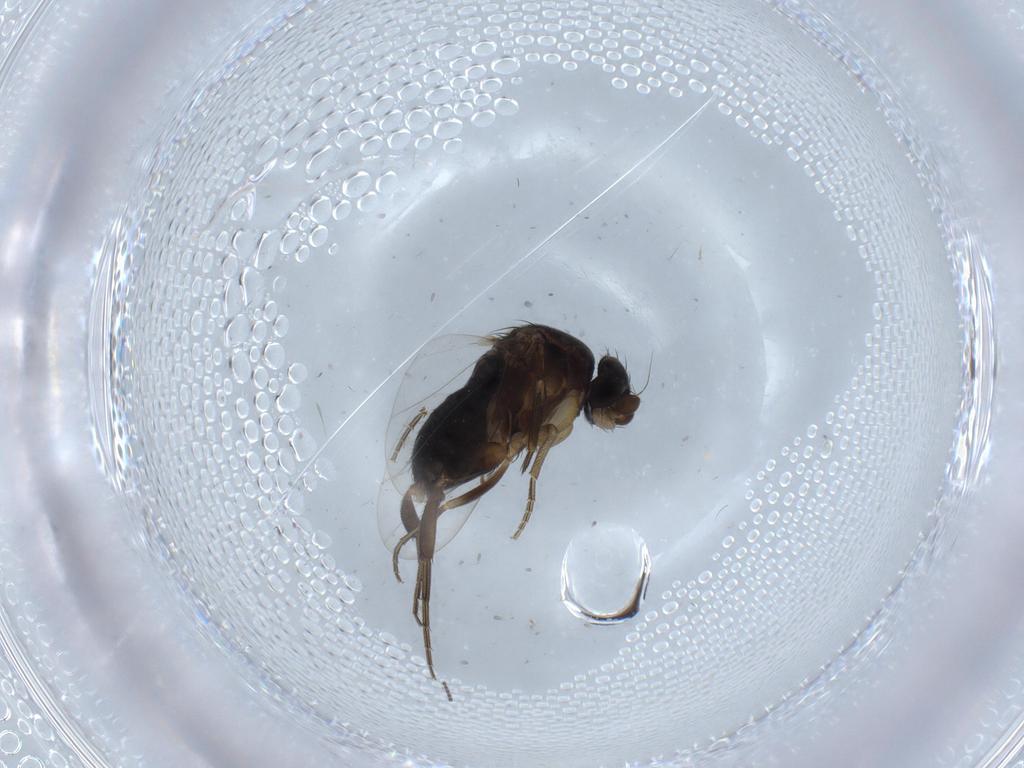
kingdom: Animalia
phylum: Arthropoda
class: Insecta
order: Diptera
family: Phoridae
